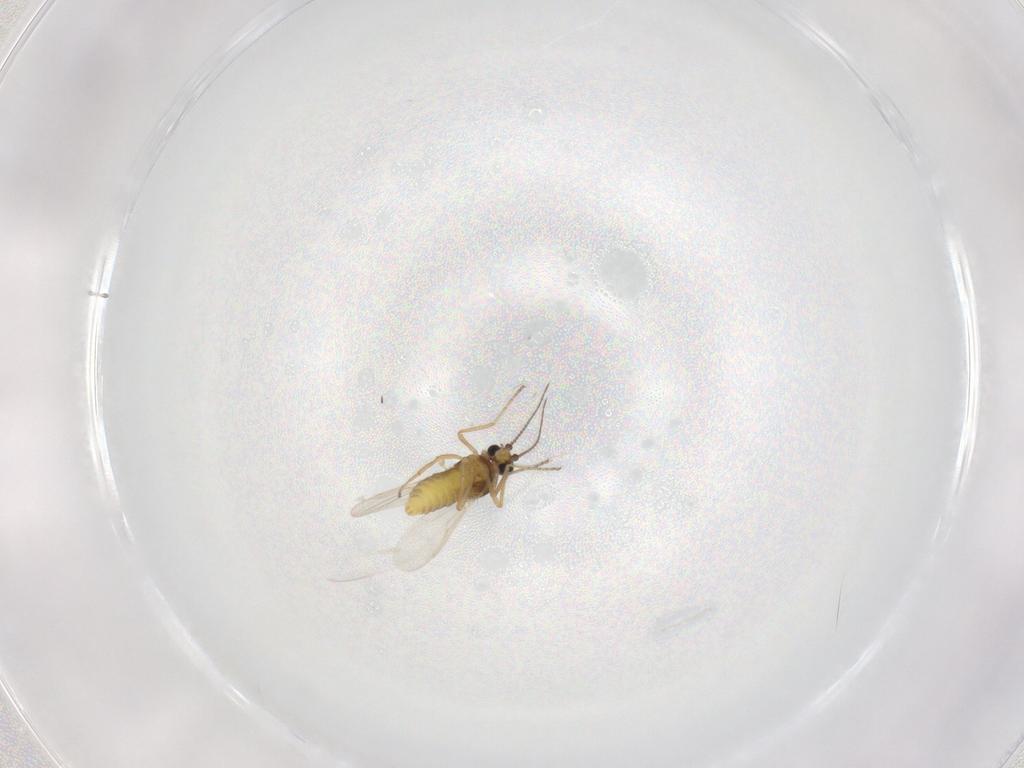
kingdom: Animalia
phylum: Arthropoda
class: Insecta
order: Diptera
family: Ceratopogonidae
